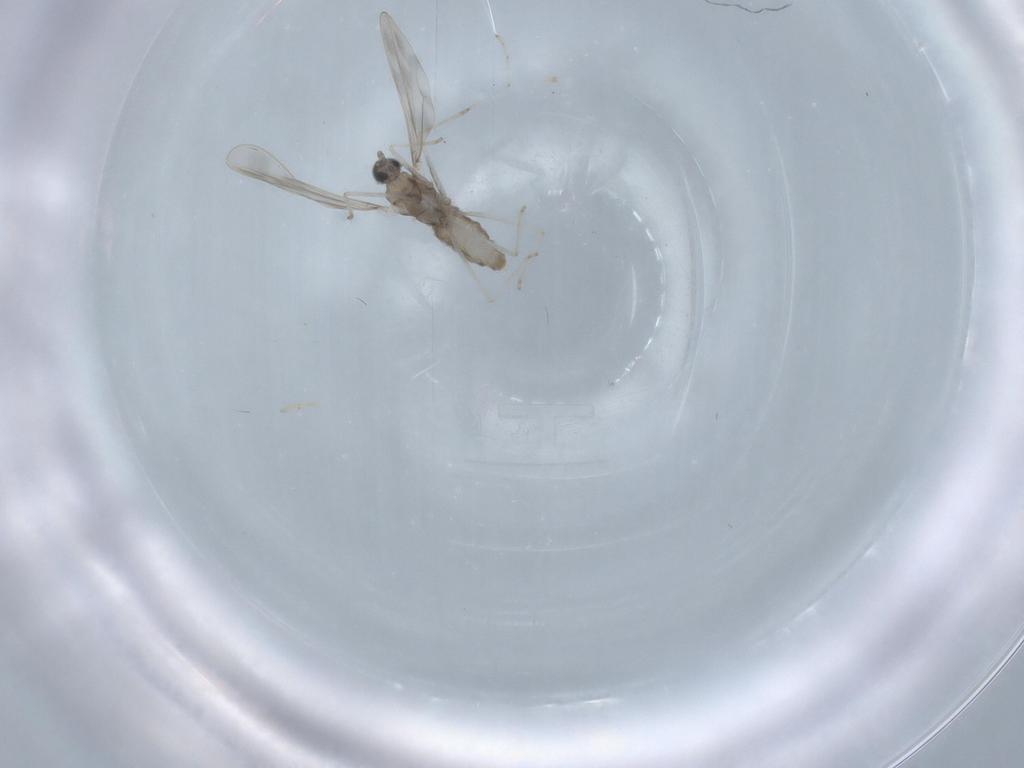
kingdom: Animalia
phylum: Arthropoda
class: Insecta
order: Diptera
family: Cecidomyiidae
